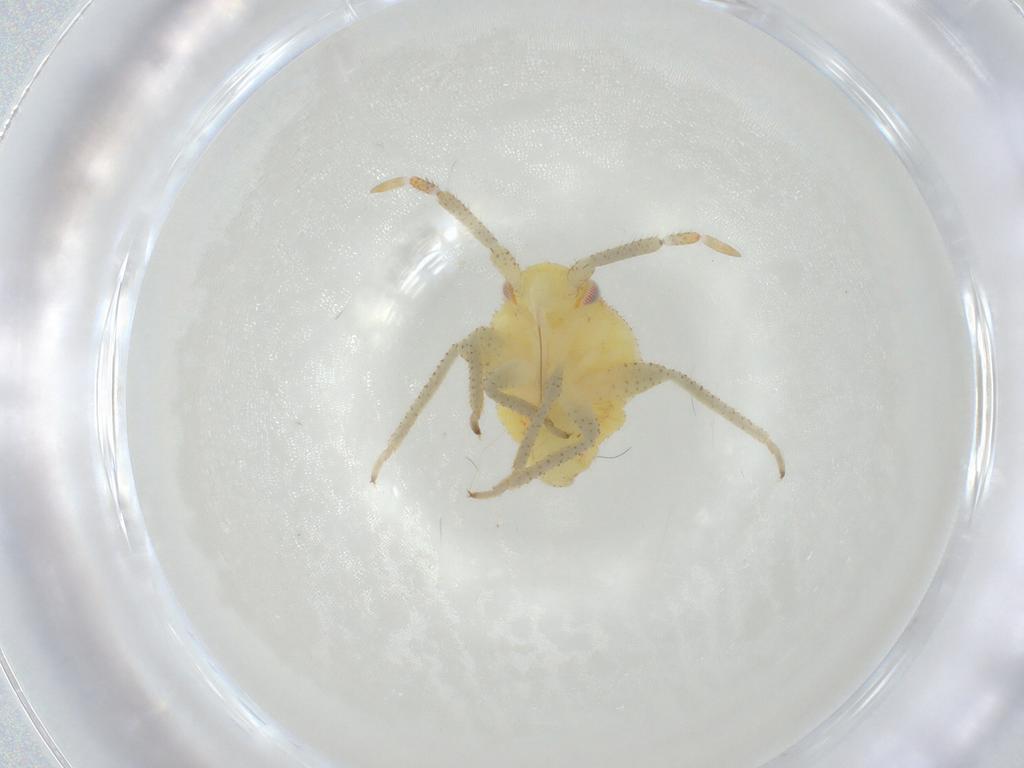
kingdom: Animalia
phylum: Arthropoda
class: Insecta
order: Hemiptera
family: Miridae
